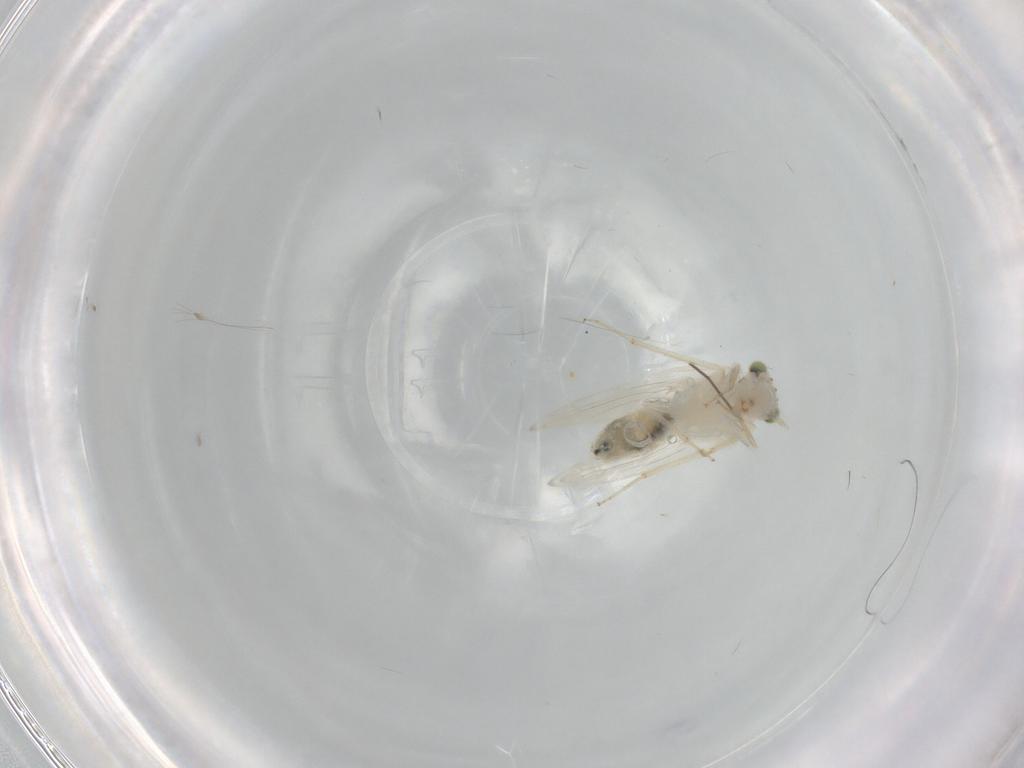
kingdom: Animalia
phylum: Arthropoda
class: Insecta
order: Psocodea
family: Lepidopsocidae
